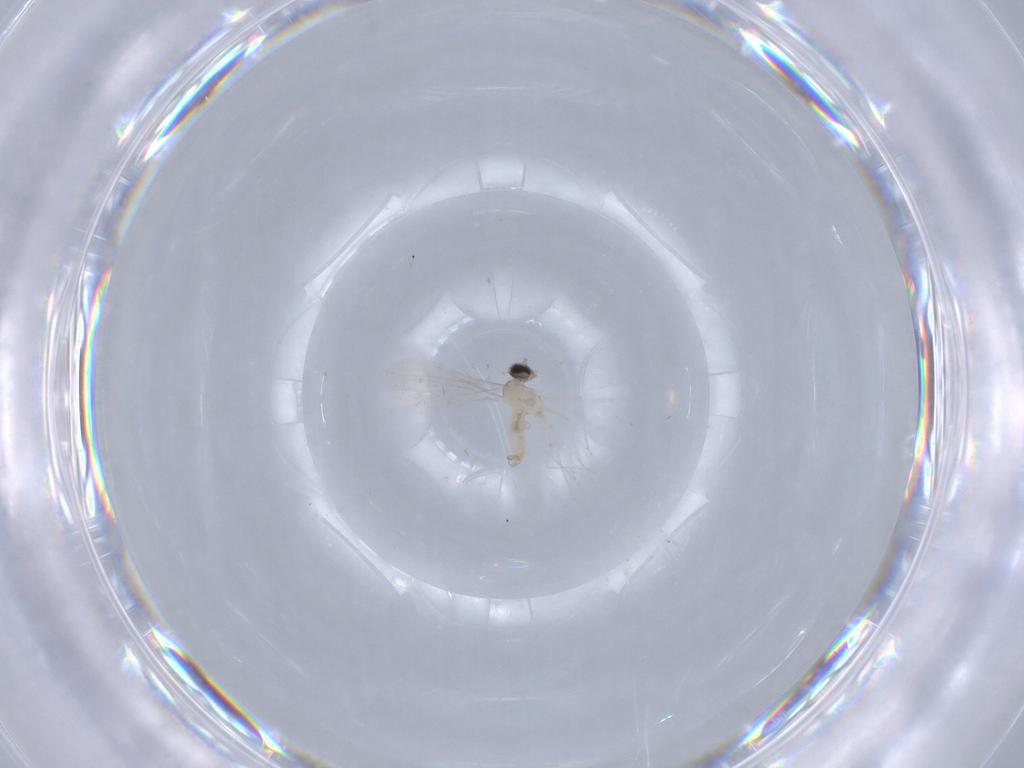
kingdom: Animalia
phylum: Arthropoda
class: Insecta
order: Diptera
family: Cecidomyiidae
